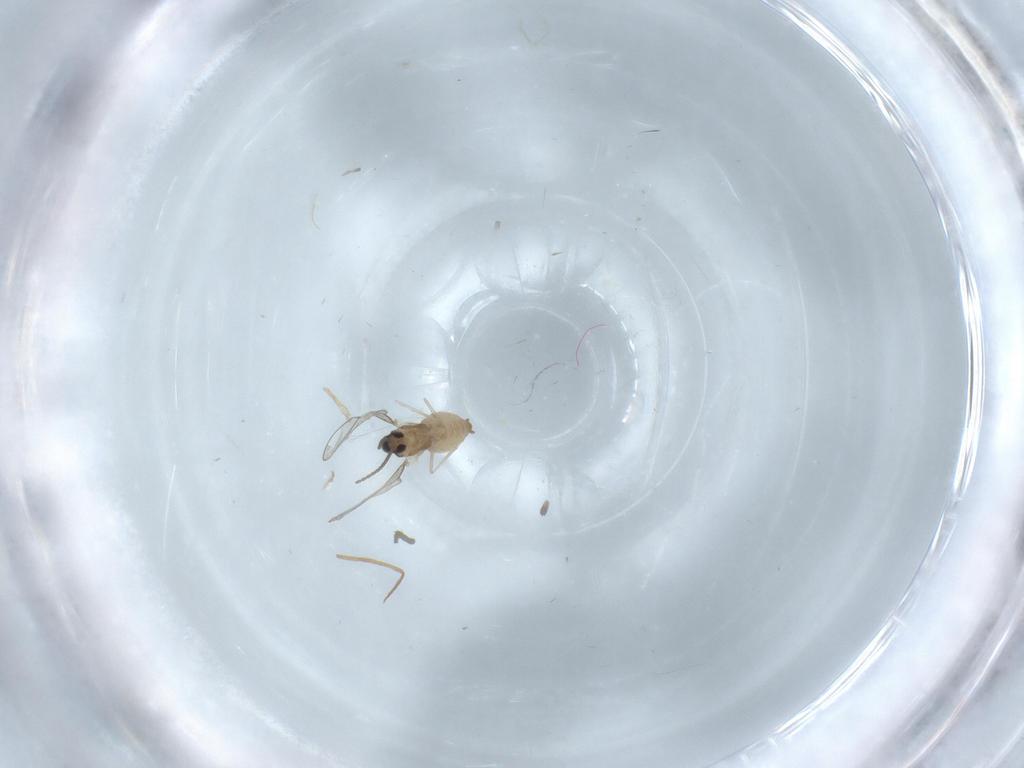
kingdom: Animalia
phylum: Arthropoda
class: Insecta
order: Diptera
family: Limoniidae
